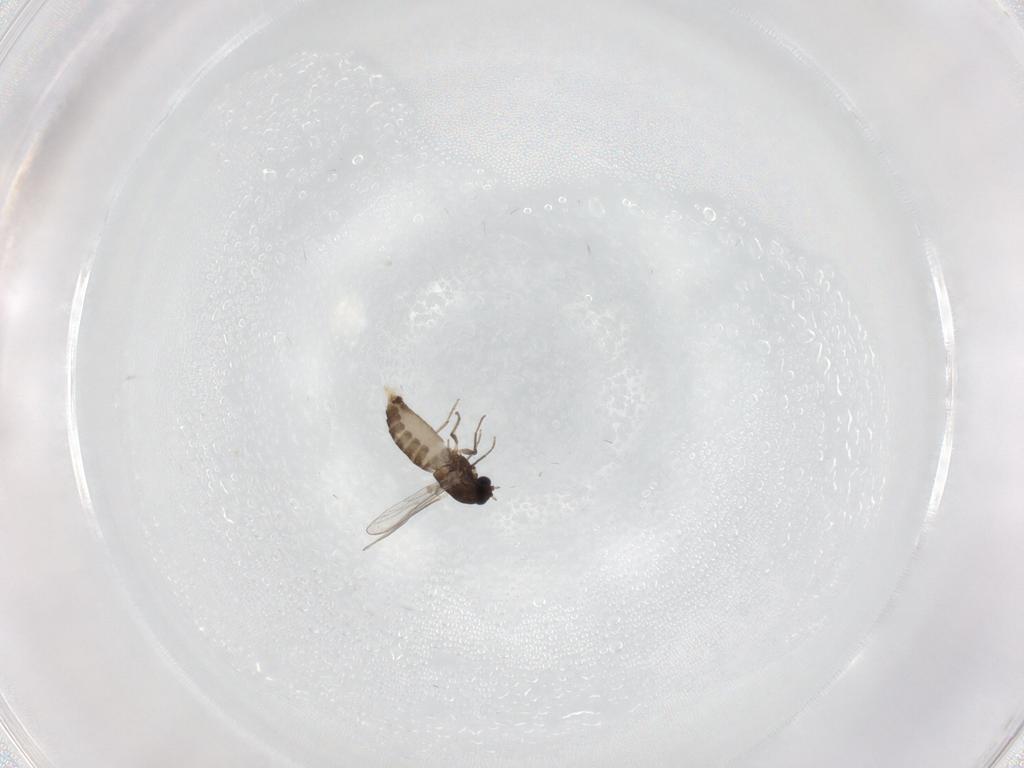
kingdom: Animalia
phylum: Arthropoda
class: Insecta
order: Diptera
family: Chironomidae
